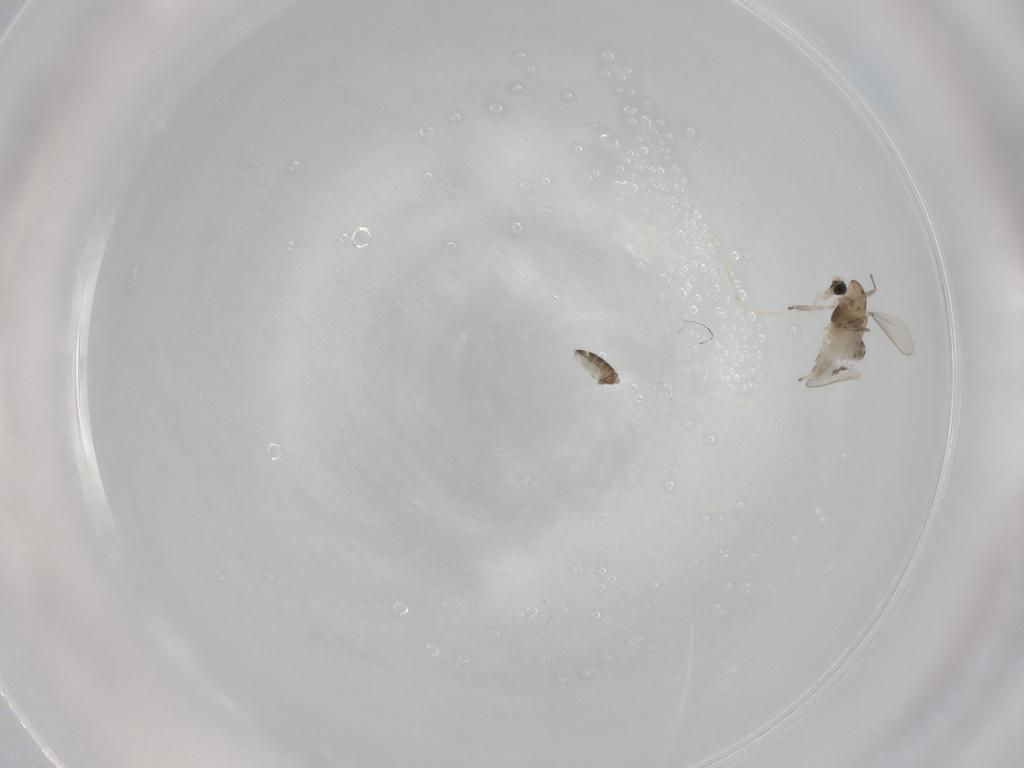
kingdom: Animalia
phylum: Arthropoda
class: Insecta
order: Diptera
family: Chironomidae
